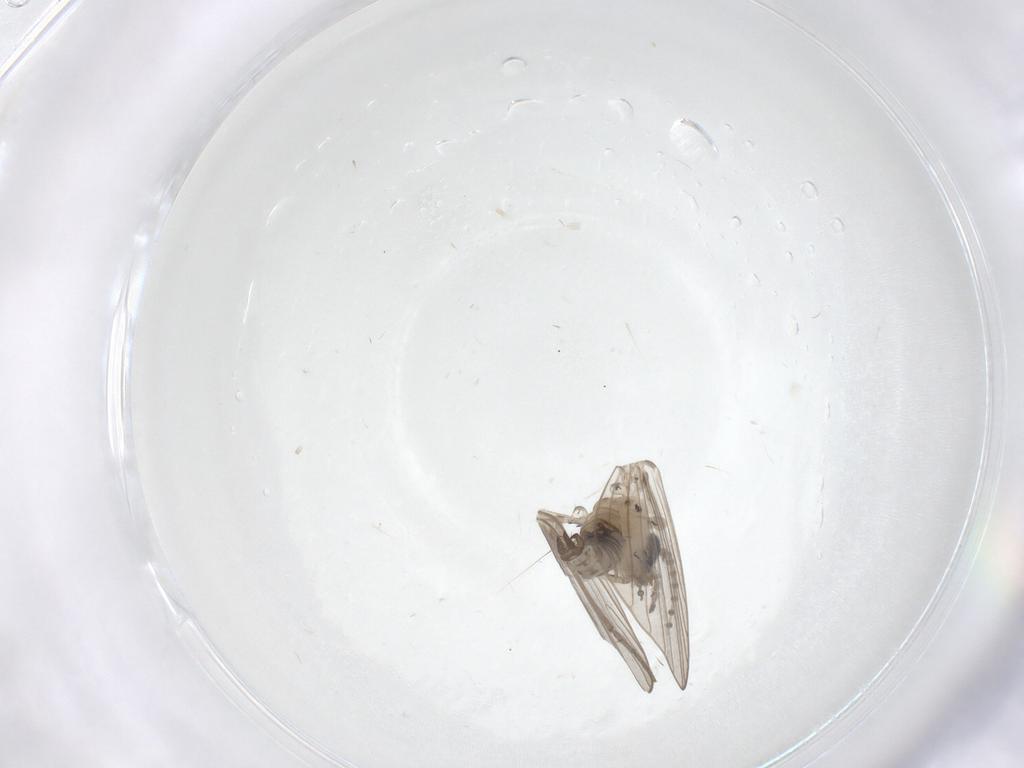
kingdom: Animalia
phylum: Arthropoda
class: Insecta
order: Diptera
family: Psychodidae
